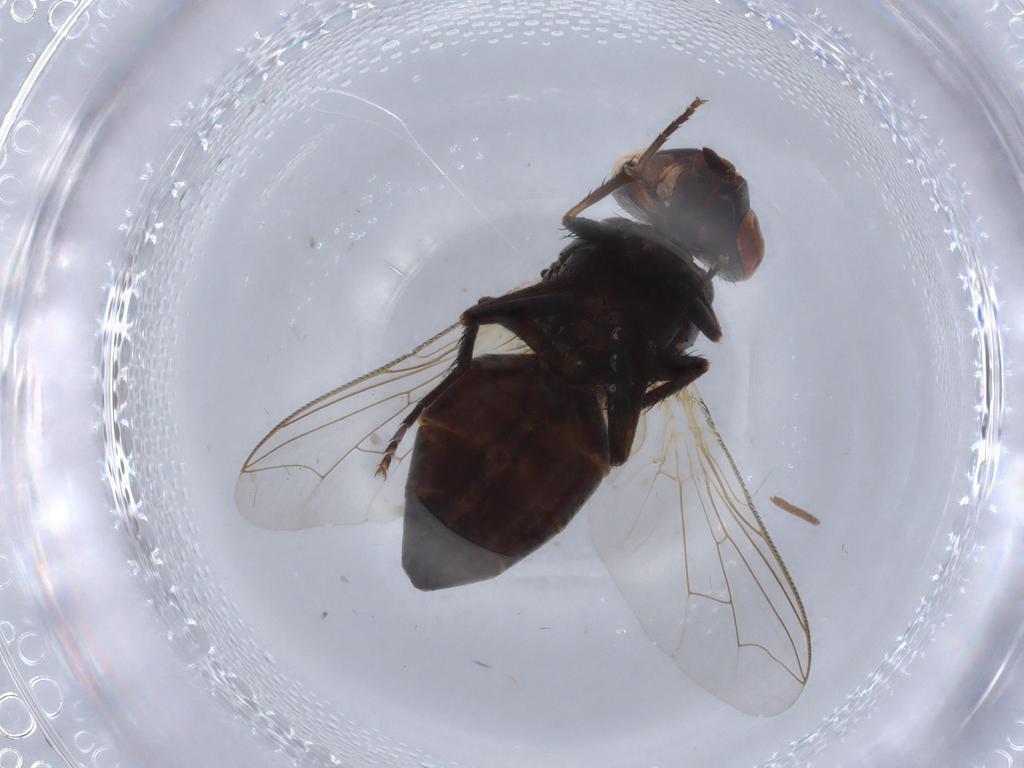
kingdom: Animalia
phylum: Arthropoda
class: Insecta
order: Diptera
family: Sarcophagidae
